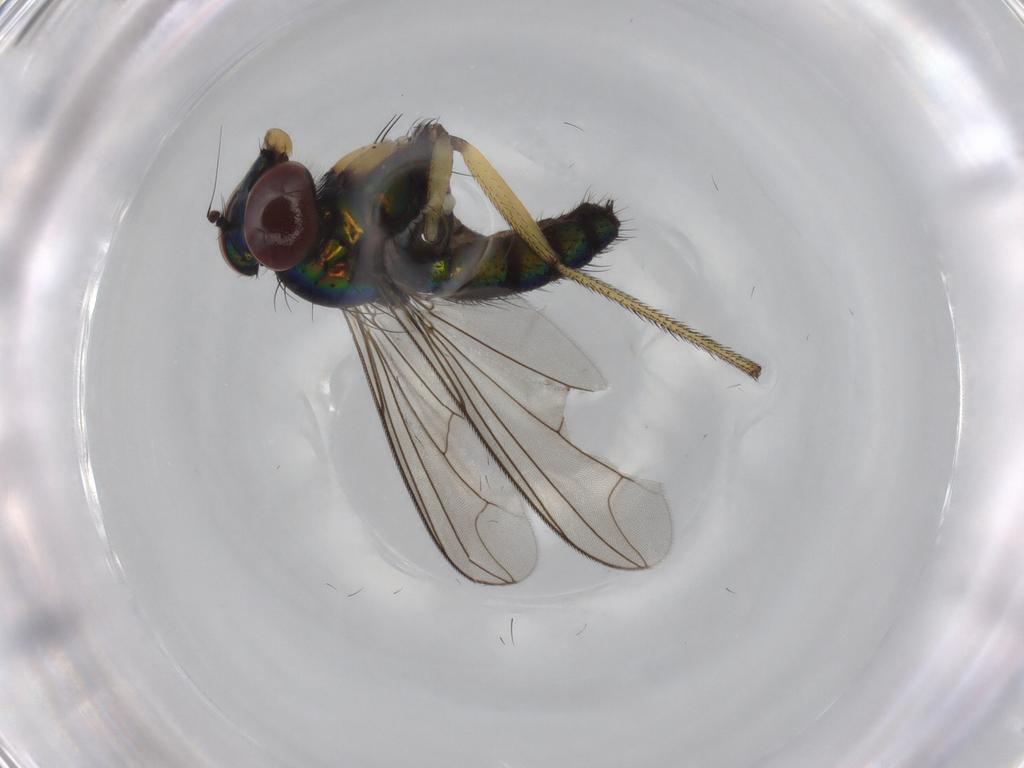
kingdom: Animalia
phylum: Arthropoda
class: Insecta
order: Diptera
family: Dolichopodidae
